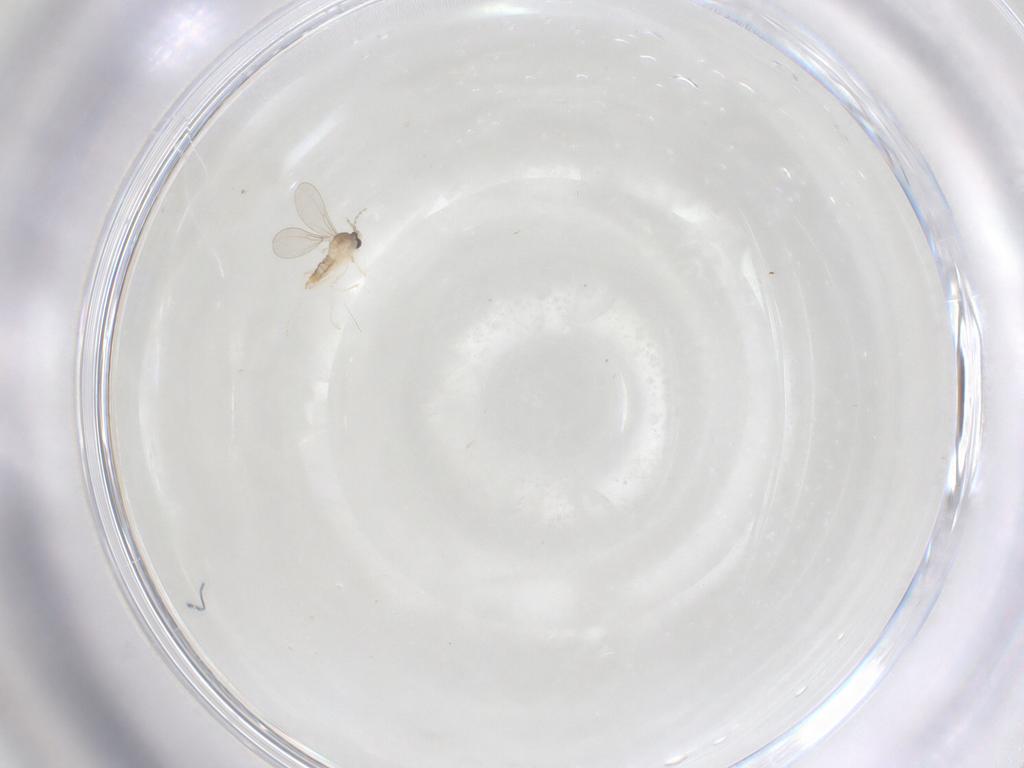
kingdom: Animalia
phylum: Arthropoda
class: Insecta
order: Diptera
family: Cecidomyiidae
